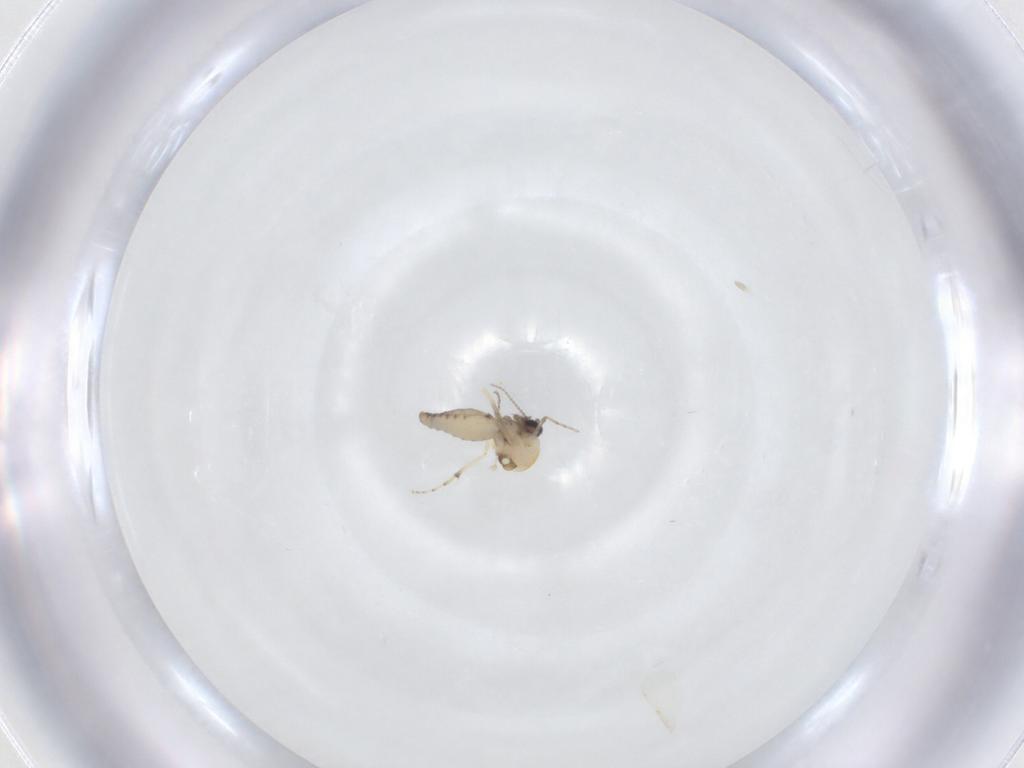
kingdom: Animalia
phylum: Arthropoda
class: Insecta
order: Diptera
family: Ceratopogonidae
